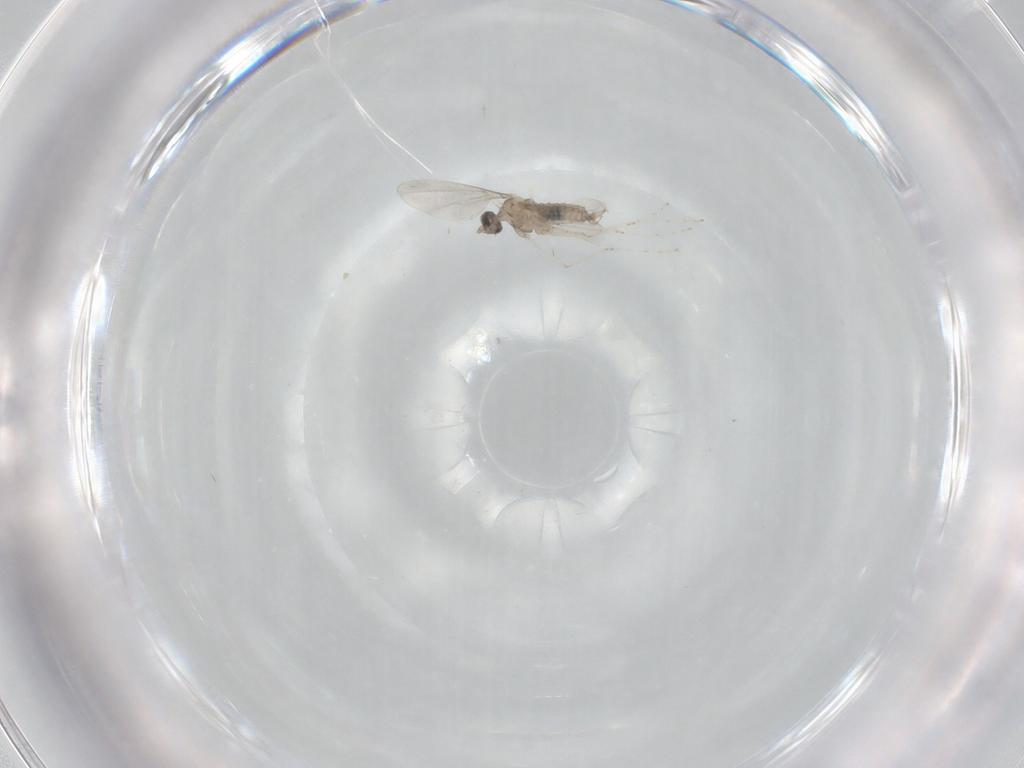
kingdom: Animalia
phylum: Arthropoda
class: Insecta
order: Diptera
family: Cecidomyiidae
